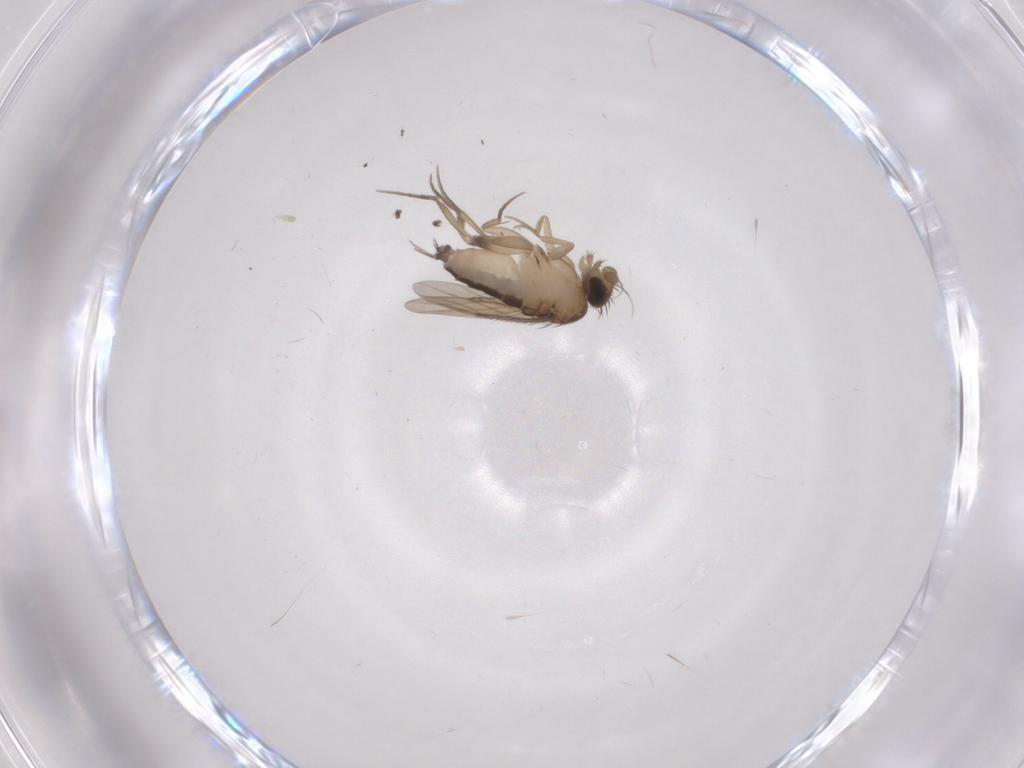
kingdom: Animalia
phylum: Arthropoda
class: Insecta
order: Diptera
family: Phoridae
